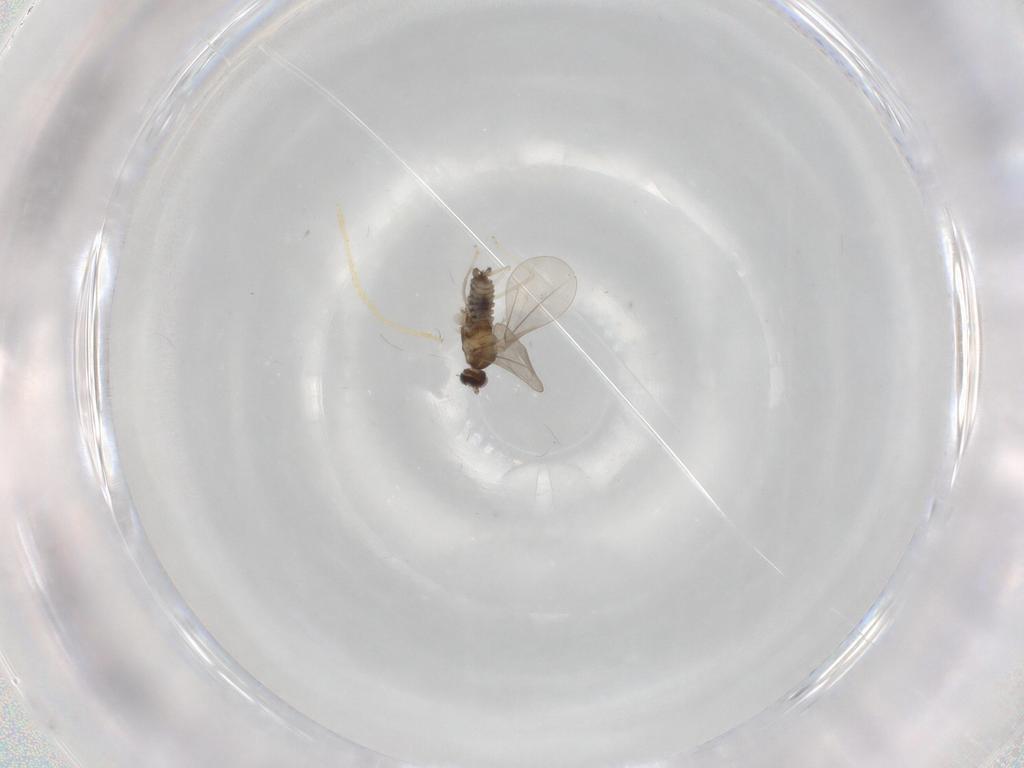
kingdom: Animalia
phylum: Arthropoda
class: Insecta
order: Diptera
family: Chironomidae
